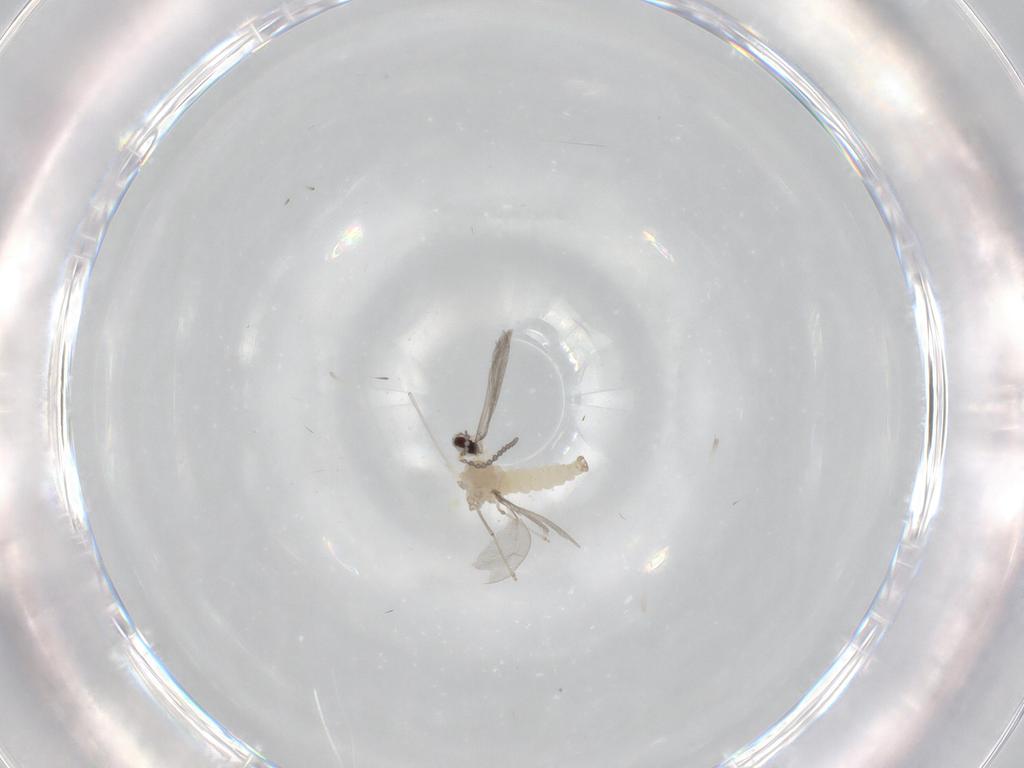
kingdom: Animalia
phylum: Arthropoda
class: Insecta
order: Diptera
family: Cecidomyiidae
